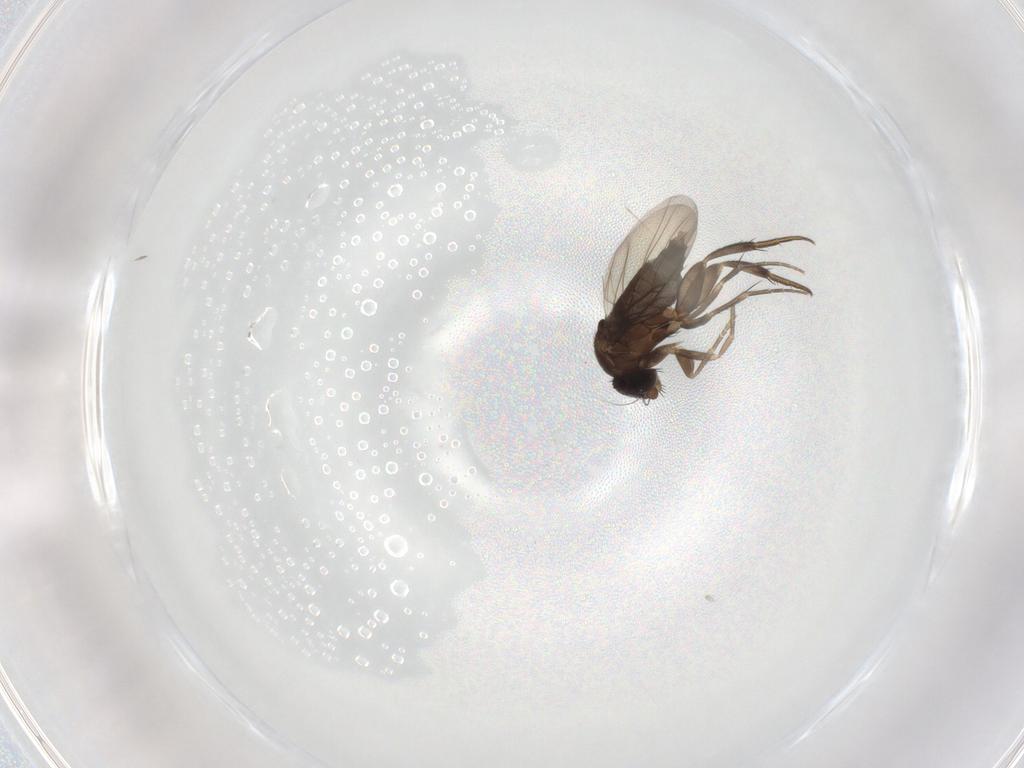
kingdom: Animalia
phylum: Arthropoda
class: Insecta
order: Diptera
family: Phoridae
